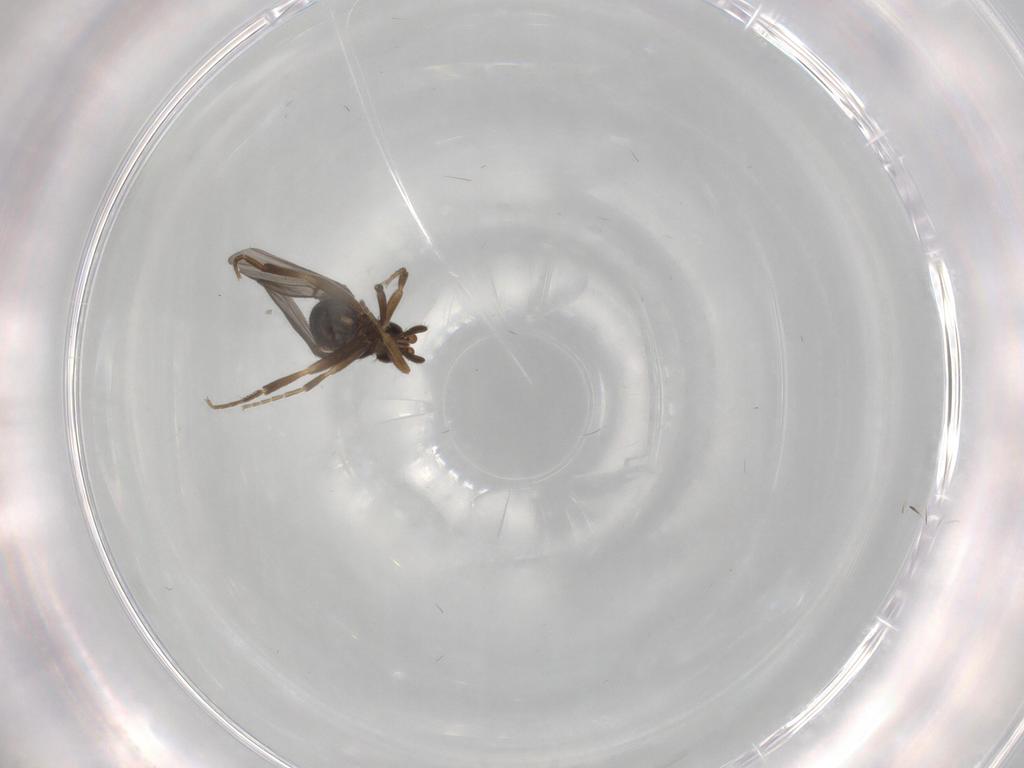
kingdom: Animalia
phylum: Arthropoda
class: Insecta
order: Diptera
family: Phoridae
